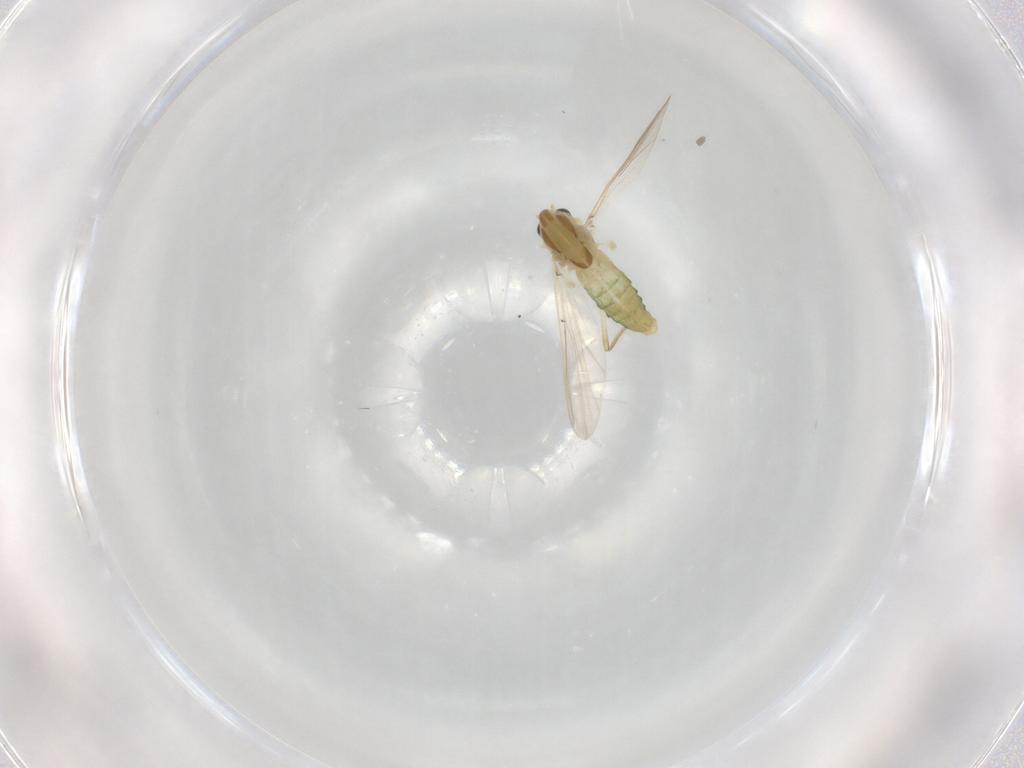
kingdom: Animalia
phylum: Arthropoda
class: Insecta
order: Diptera
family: Chironomidae
